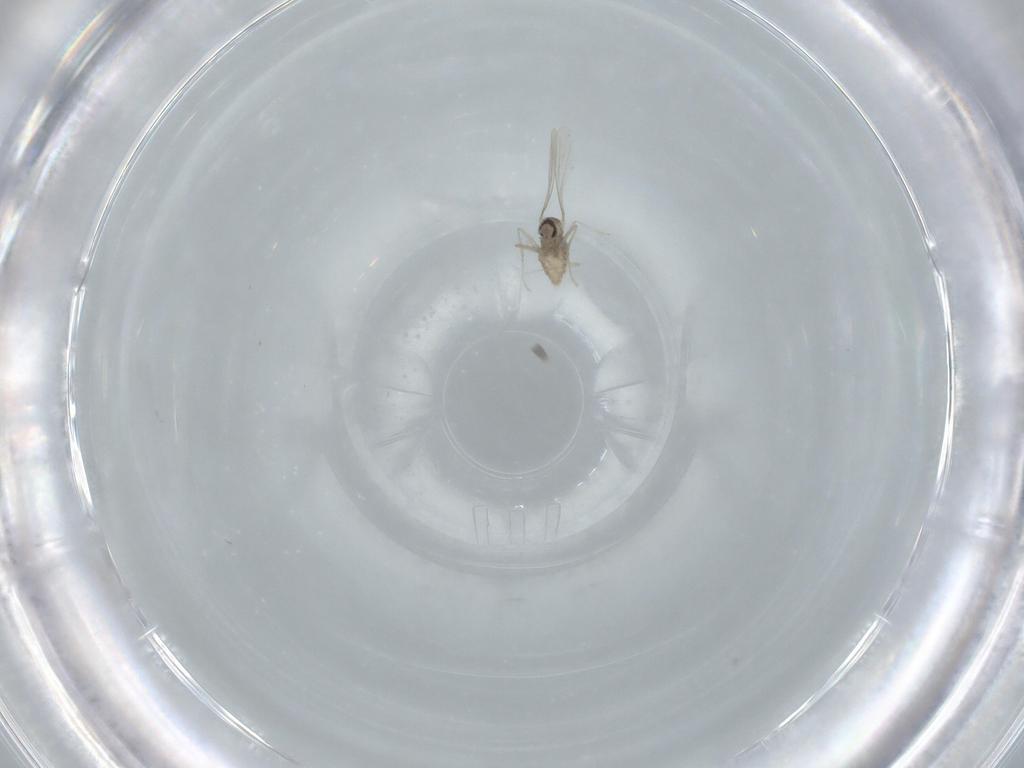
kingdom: Animalia
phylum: Arthropoda
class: Insecta
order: Diptera
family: Cecidomyiidae
